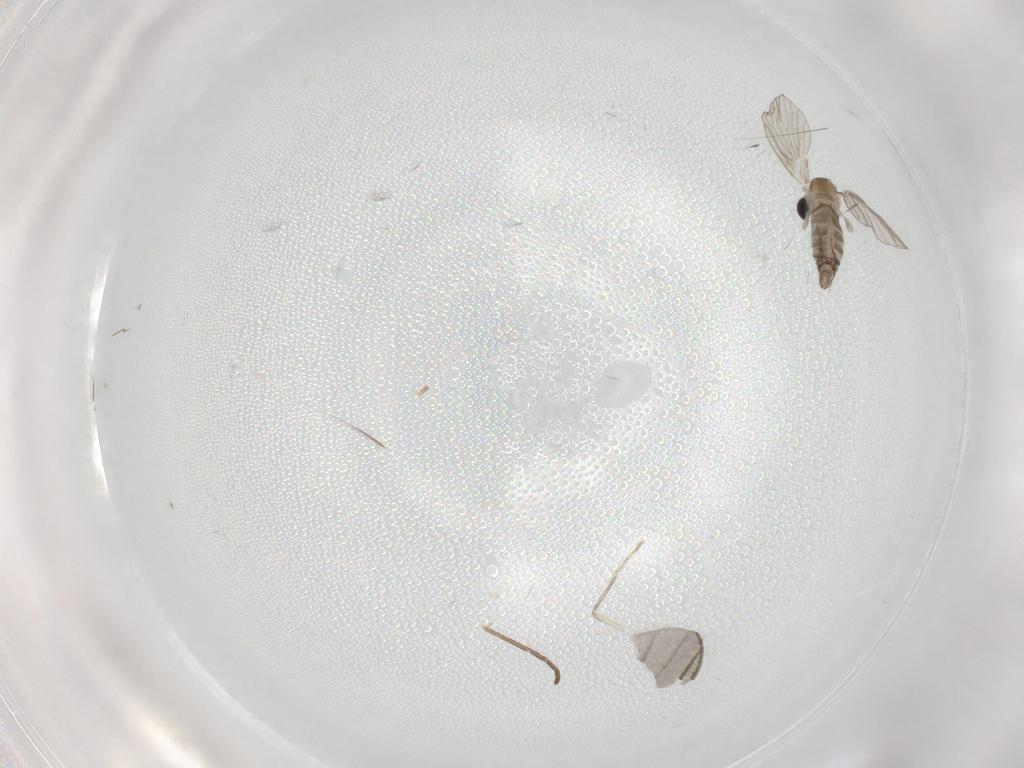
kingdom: Animalia
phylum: Arthropoda
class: Insecta
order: Diptera
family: Sciaridae
